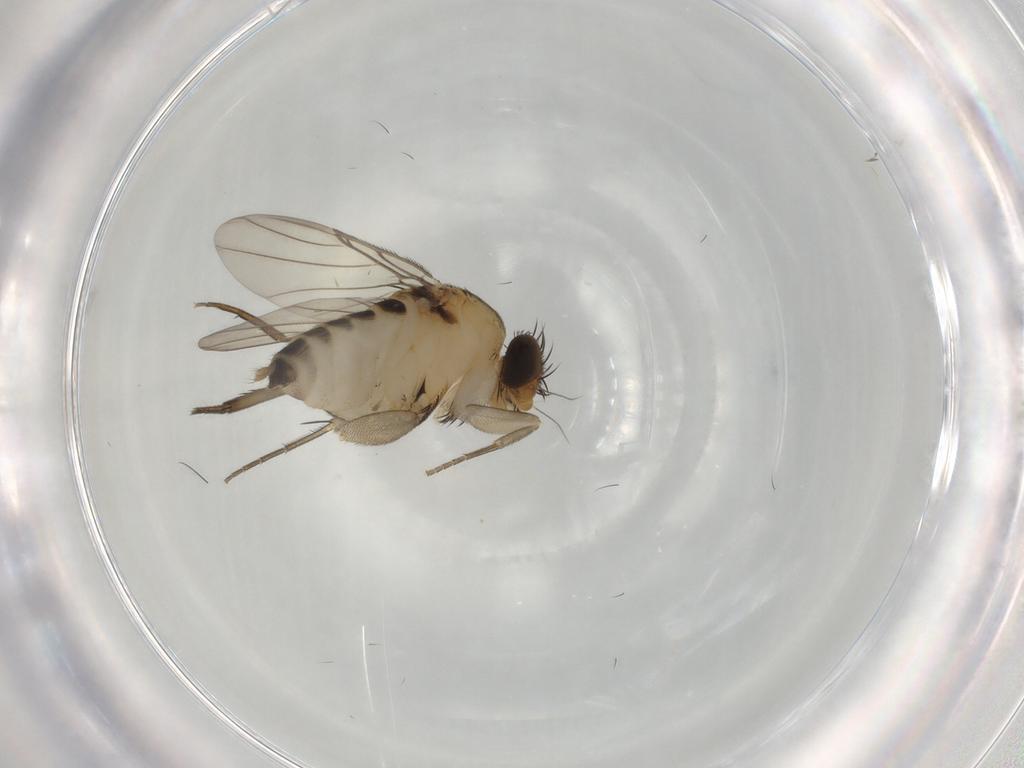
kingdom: Animalia
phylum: Arthropoda
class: Insecta
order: Diptera
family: Phoridae
